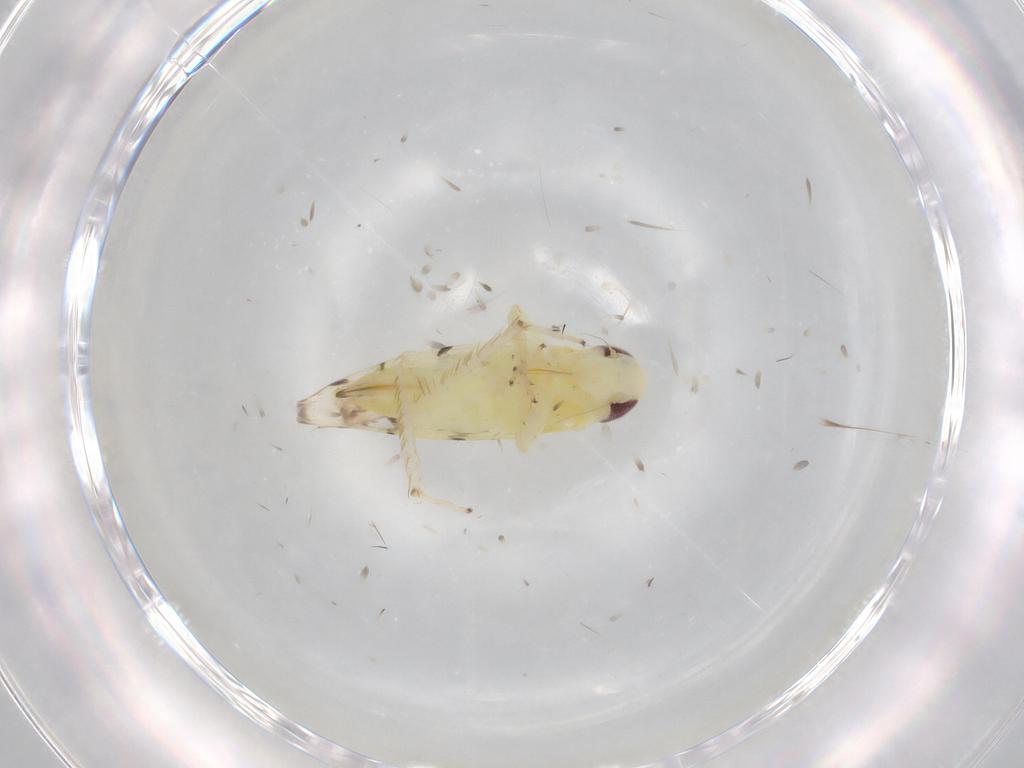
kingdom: Animalia
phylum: Arthropoda
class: Insecta
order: Hemiptera
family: Cicadellidae
